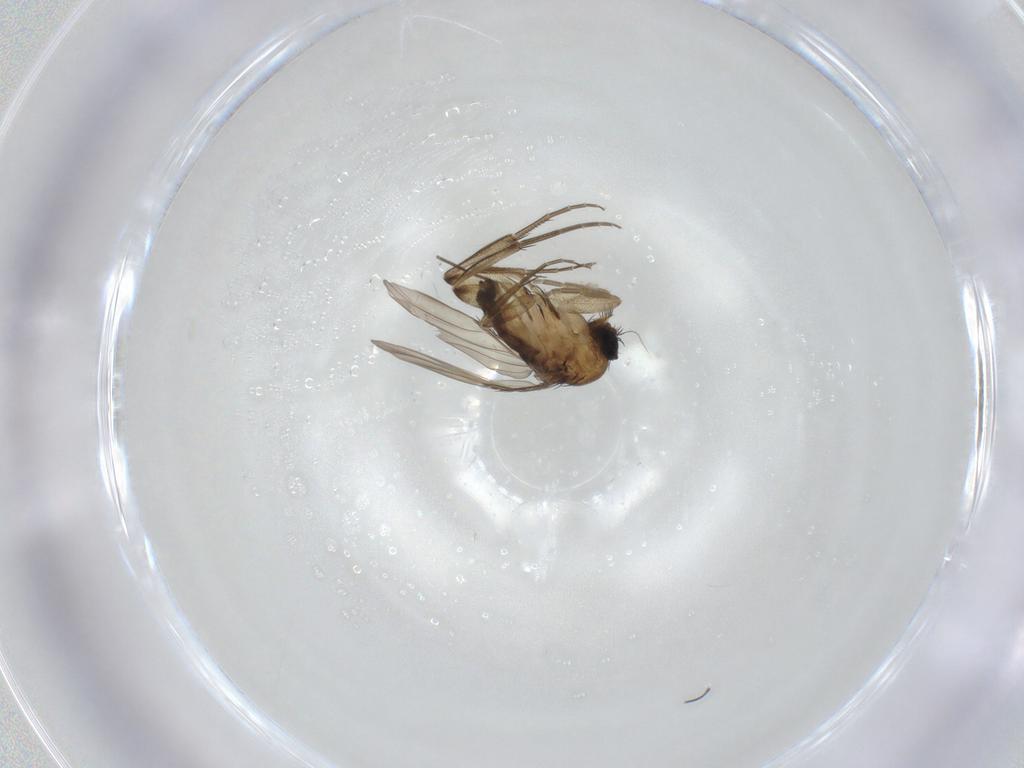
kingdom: Animalia
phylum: Arthropoda
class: Insecta
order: Diptera
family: Phoridae
